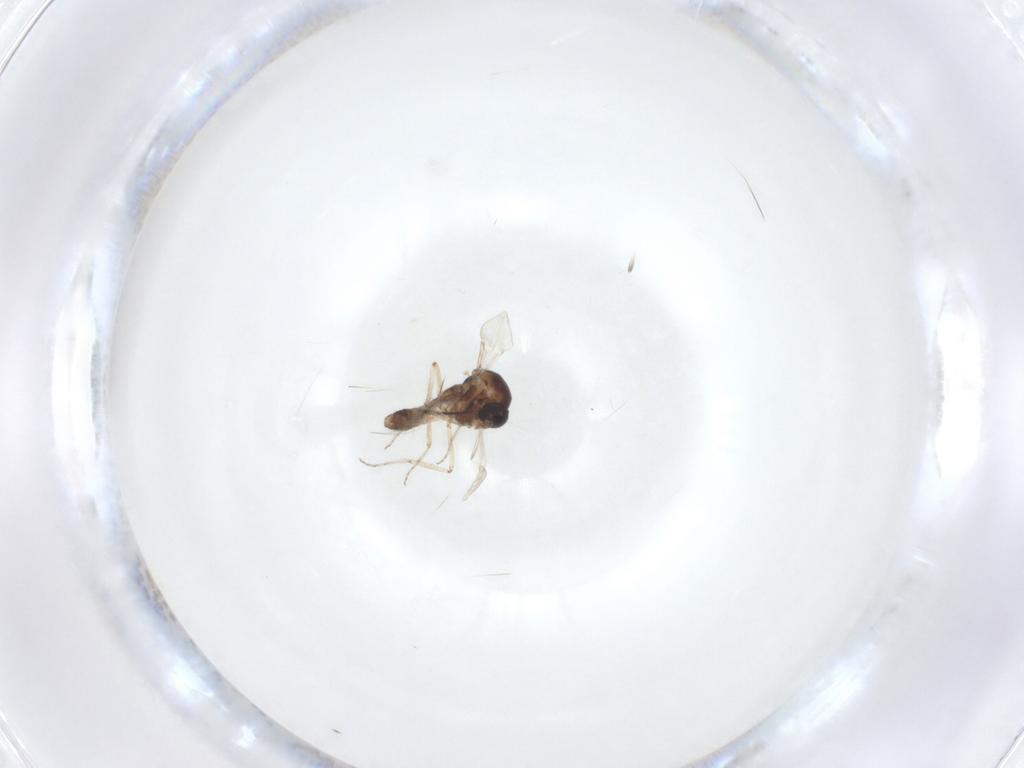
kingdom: Animalia
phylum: Arthropoda
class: Insecta
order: Diptera
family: Ceratopogonidae
